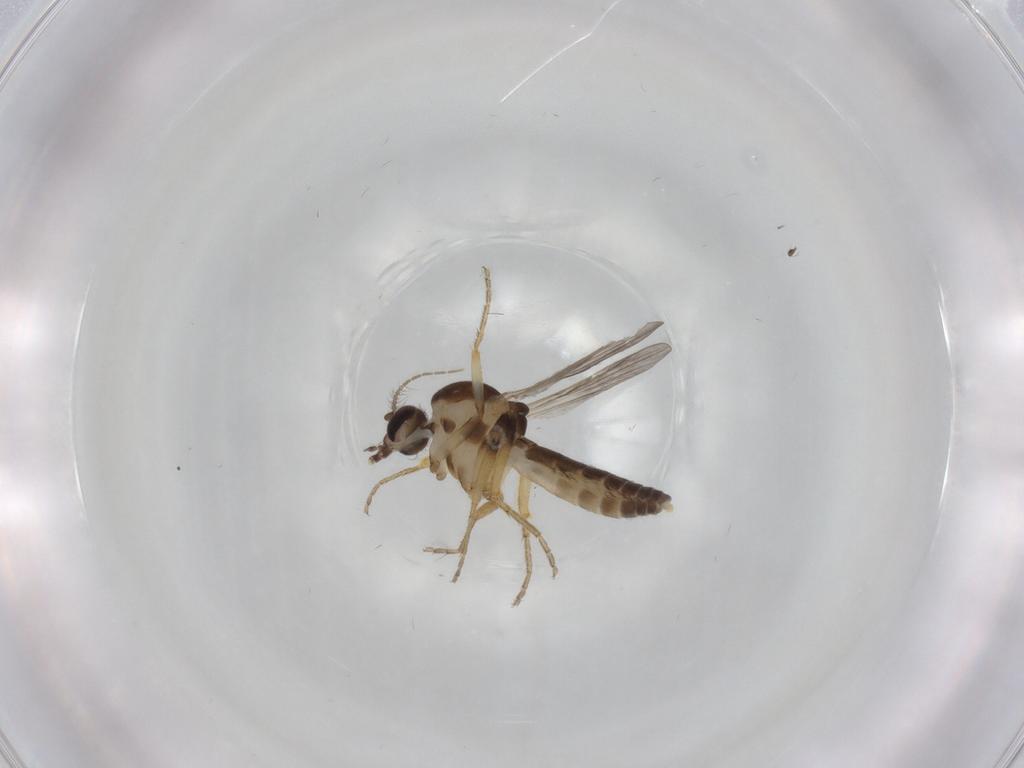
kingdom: Animalia
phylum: Arthropoda
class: Insecta
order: Diptera
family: Ceratopogonidae
